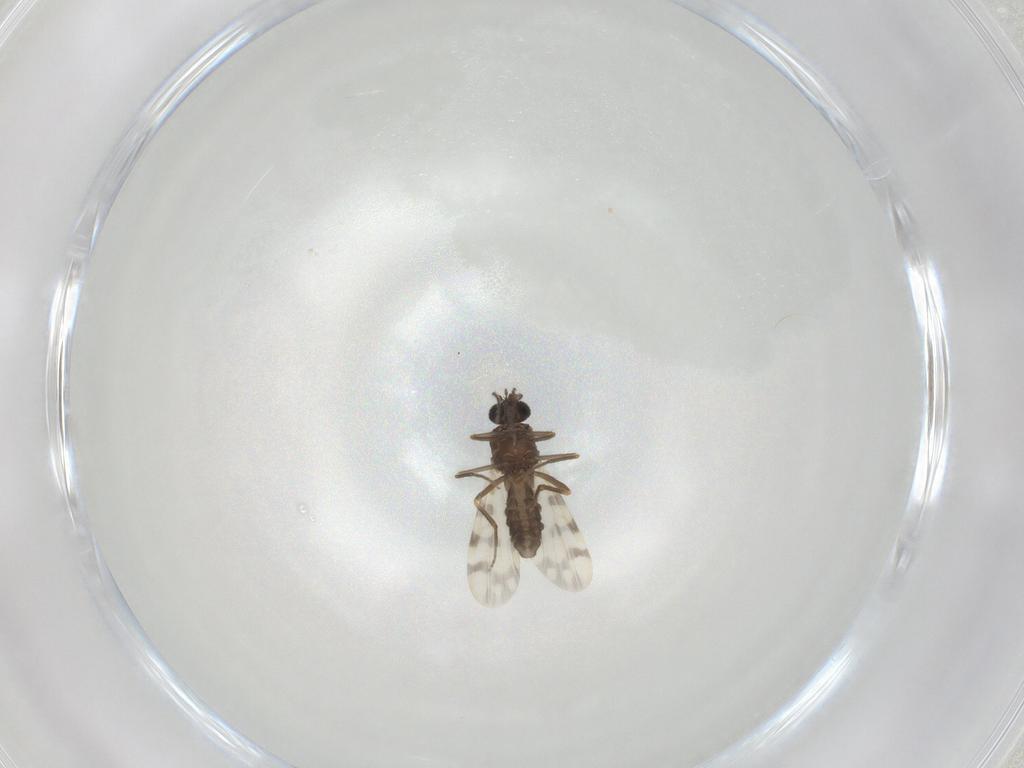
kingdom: Animalia
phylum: Arthropoda
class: Insecta
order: Diptera
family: Ceratopogonidae
